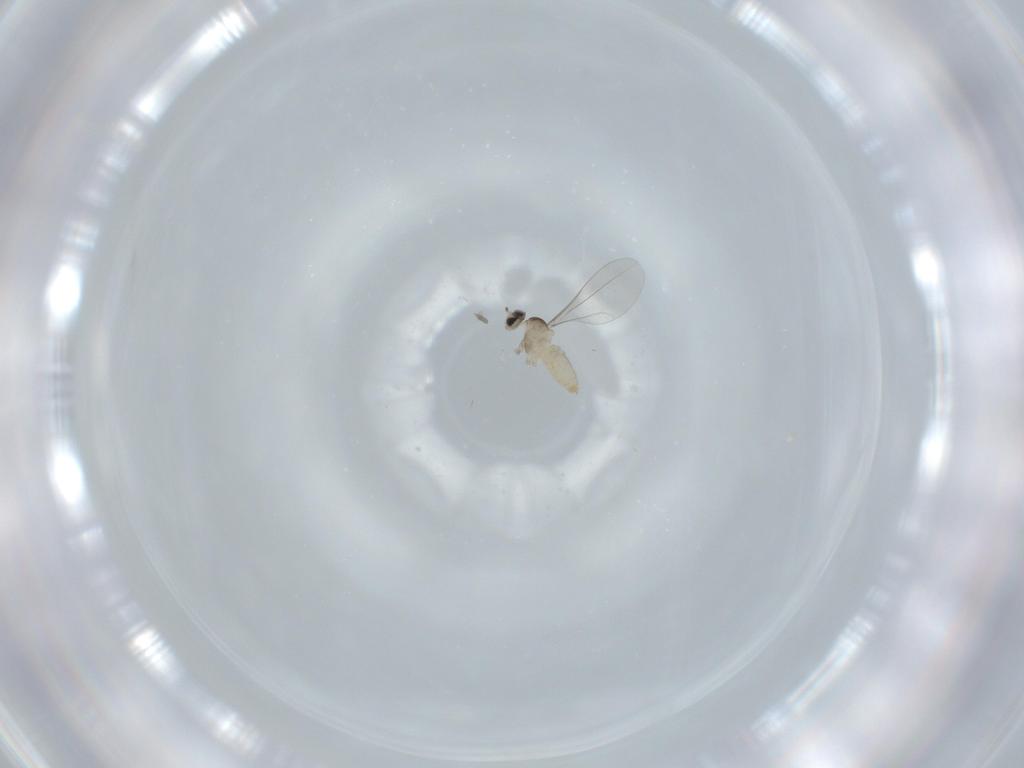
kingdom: Animalia
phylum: Arthropoda
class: Insecta
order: Diptera
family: Cecidomyiidae
